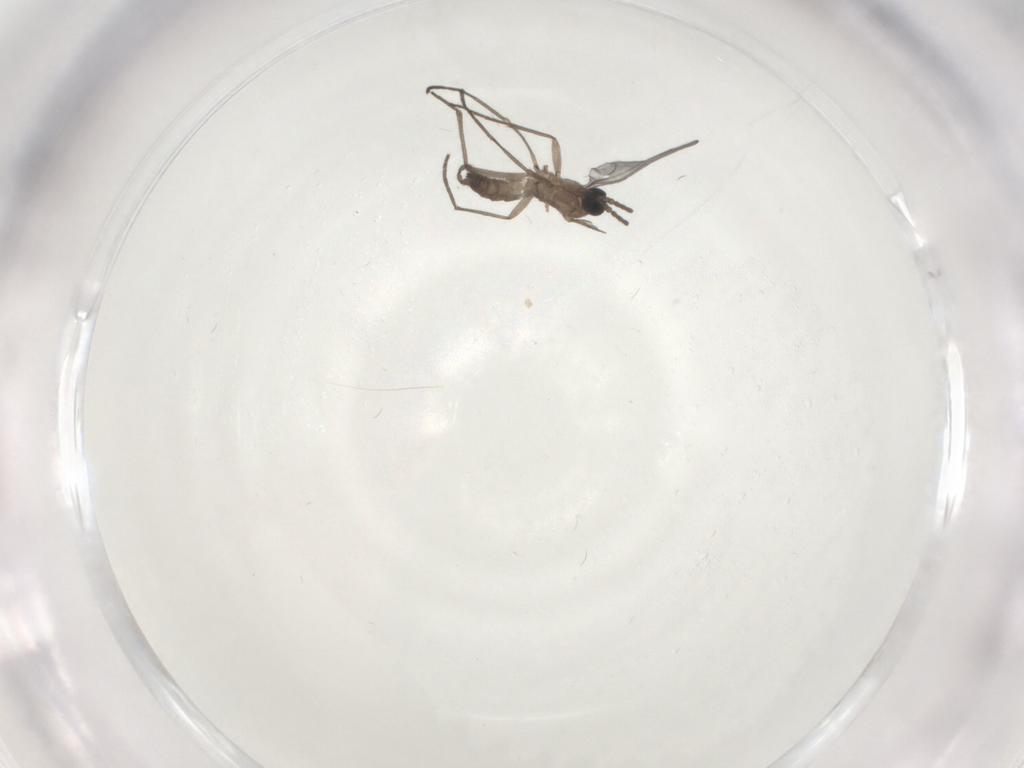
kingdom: Animalia
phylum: Arthropoda
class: Insecta
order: Diptera
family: Sciaridae
